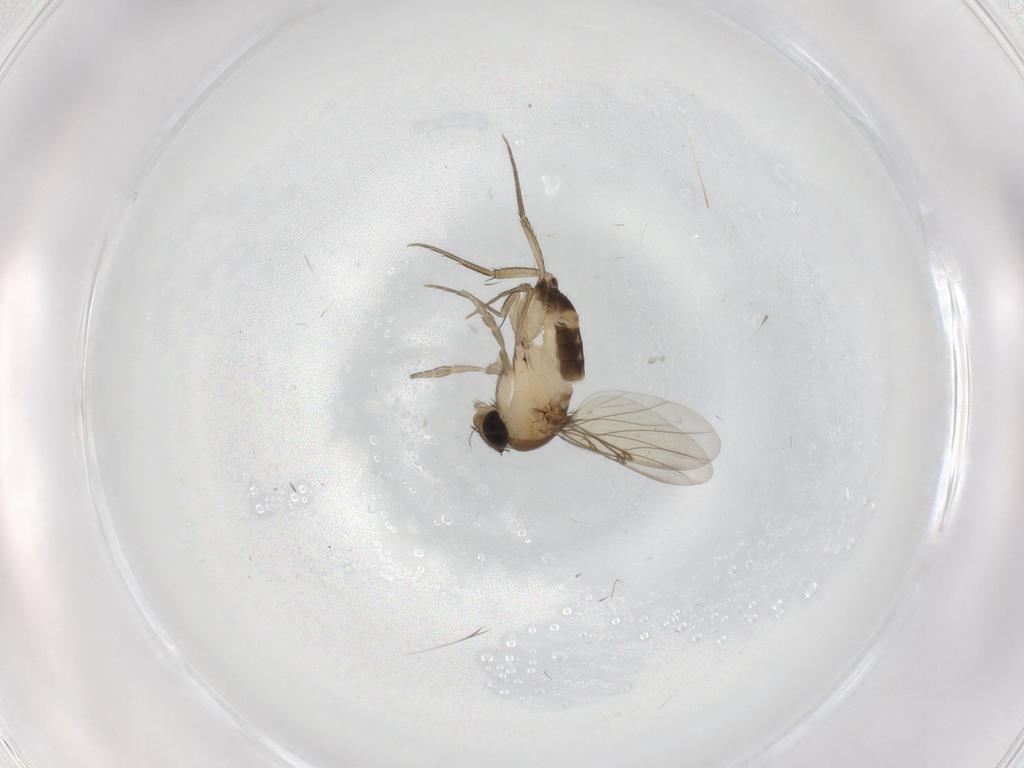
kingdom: Animalia
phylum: Arthropoda
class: Insecta
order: Diptera
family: Phoridae
